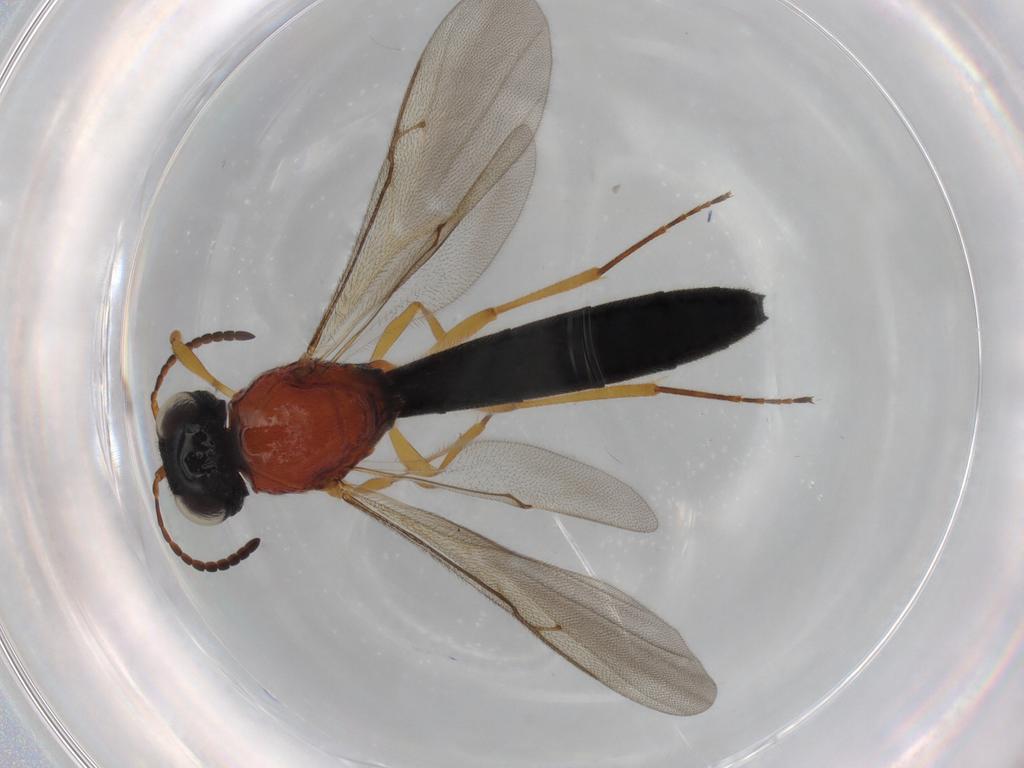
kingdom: Animalia
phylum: Arthropoda
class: Insecta
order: Hymenoptera
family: Scelionidae
